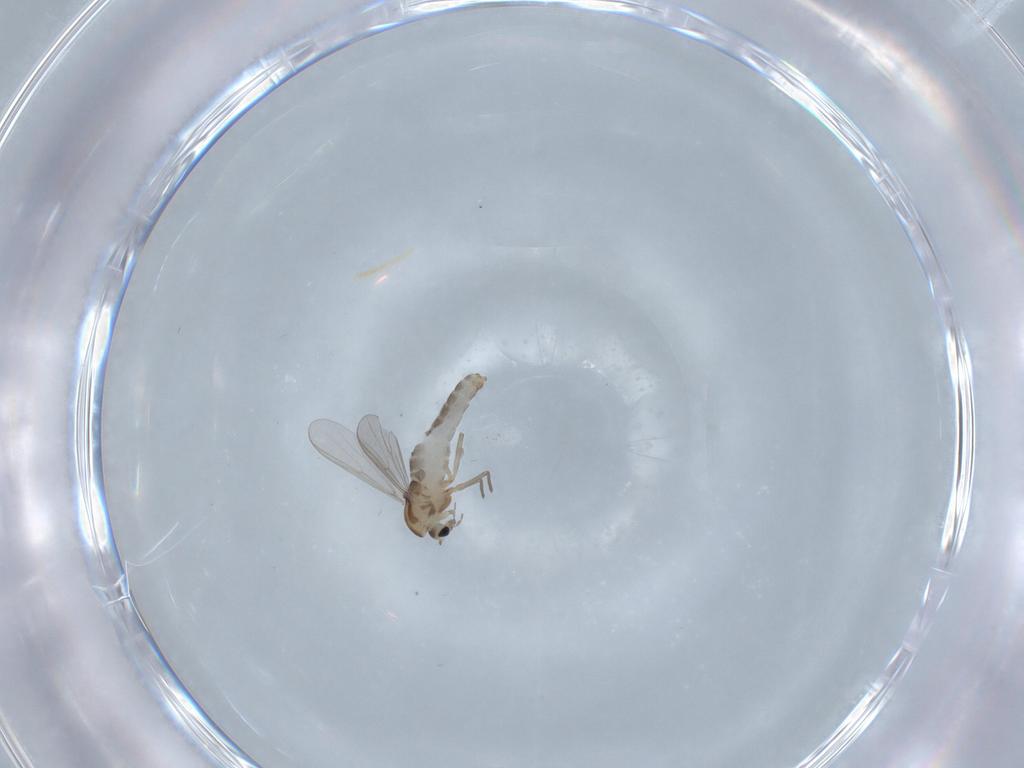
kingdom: Animalia
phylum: Arthropoda
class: Insecta
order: Diptera
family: Chironomidae
